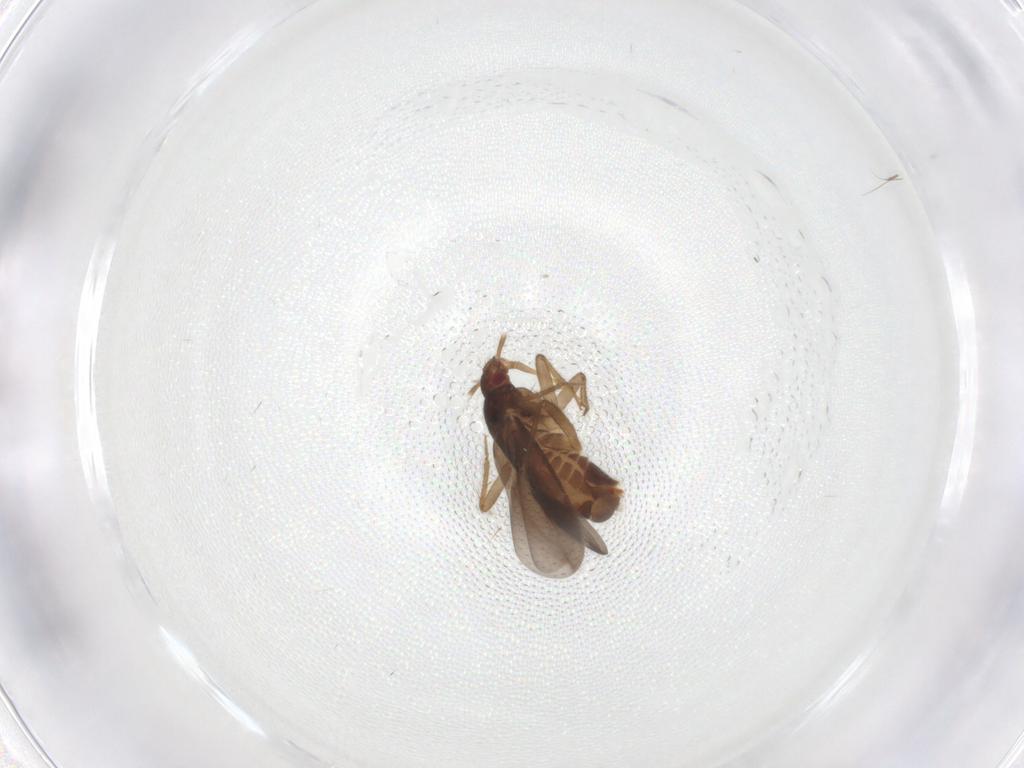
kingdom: Animalia
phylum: Arthropoda
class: Insecta
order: Hemiptera
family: Ceratocombidae
